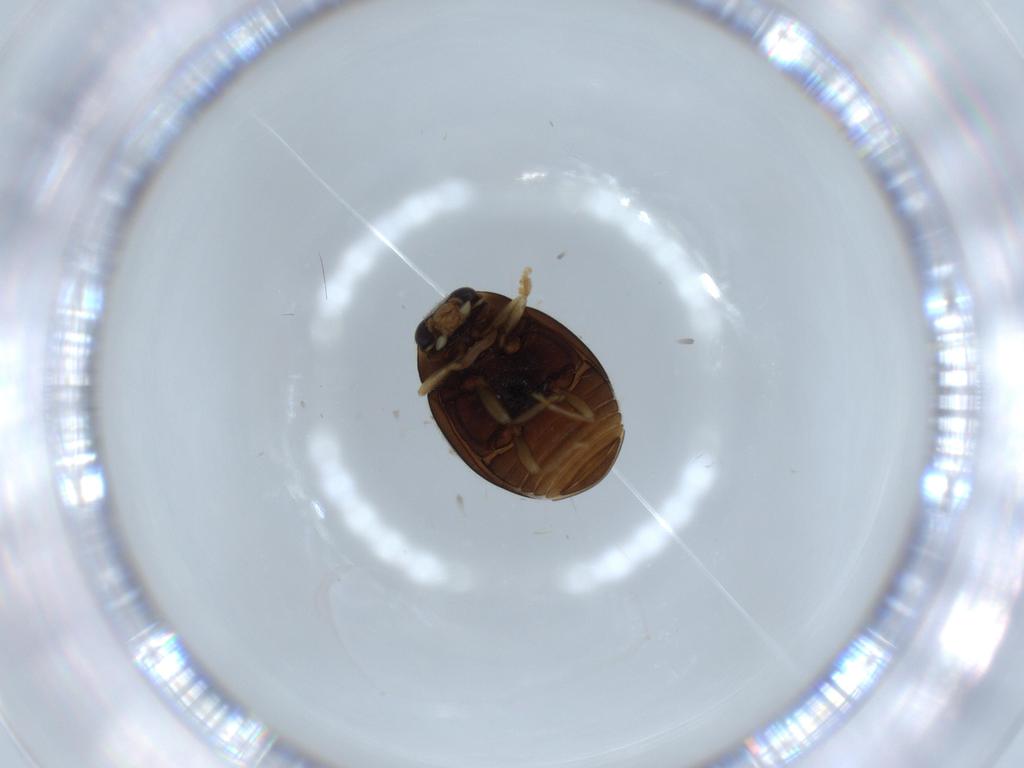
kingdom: Animalia
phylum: Arthropoda
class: Insecta
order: Coleoptera
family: Coccinellidae
